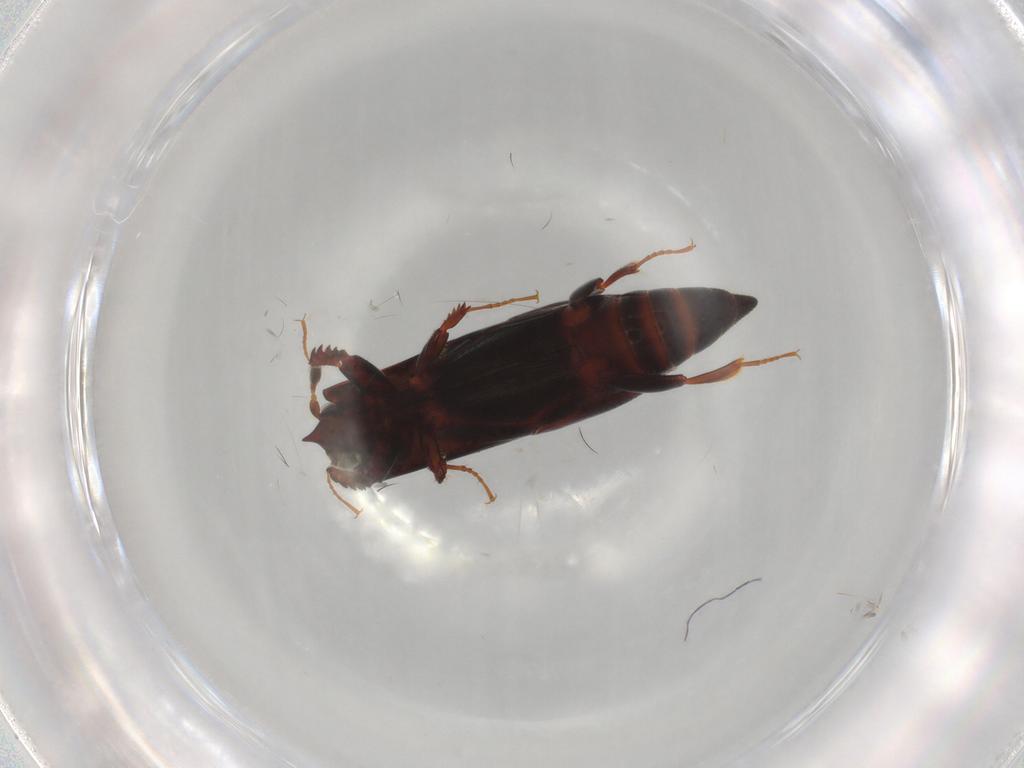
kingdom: Animalia
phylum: Arthropoda
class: Insecta
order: Coleoptera
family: Histeridae
